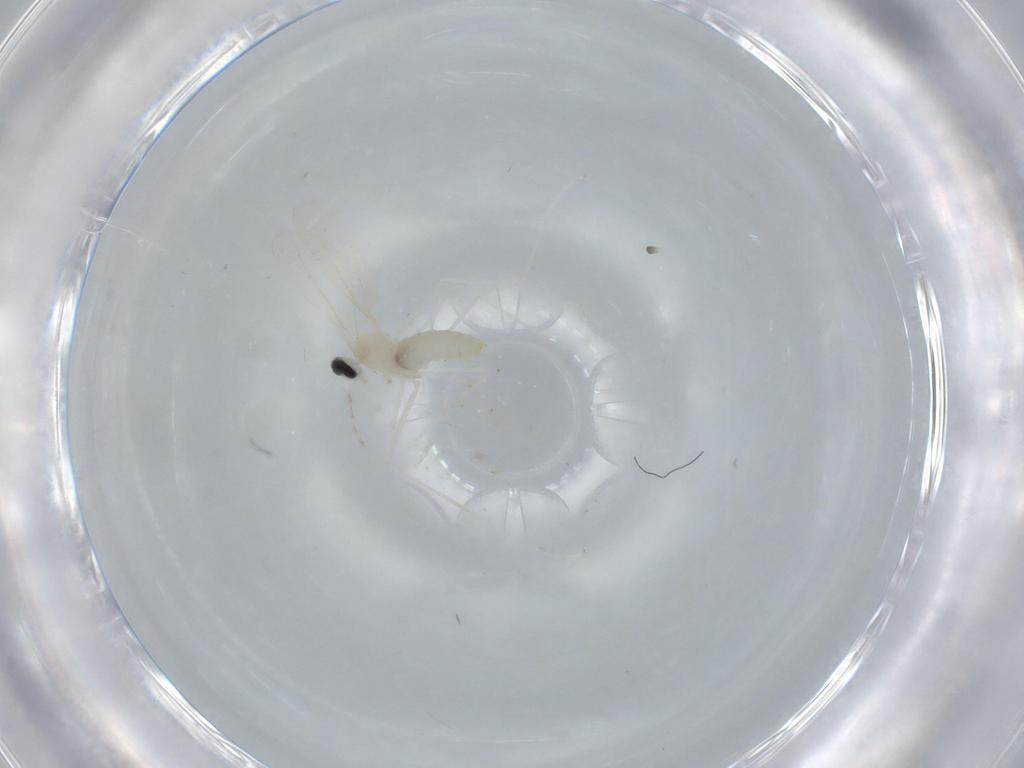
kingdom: Animalia
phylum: Arthropoda
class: Insecta
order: Diptera
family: Cecidomyiidae
